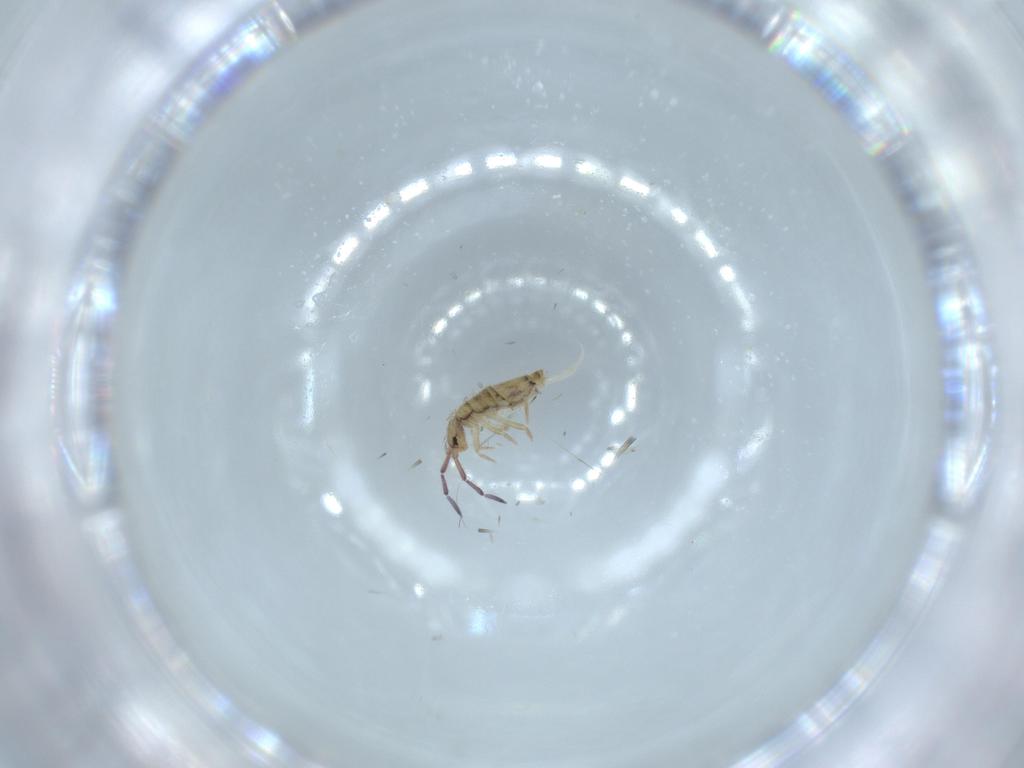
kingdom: Animalia
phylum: Arthropoda
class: Collembola
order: Entomobryomorpha
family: Entomobryidae
